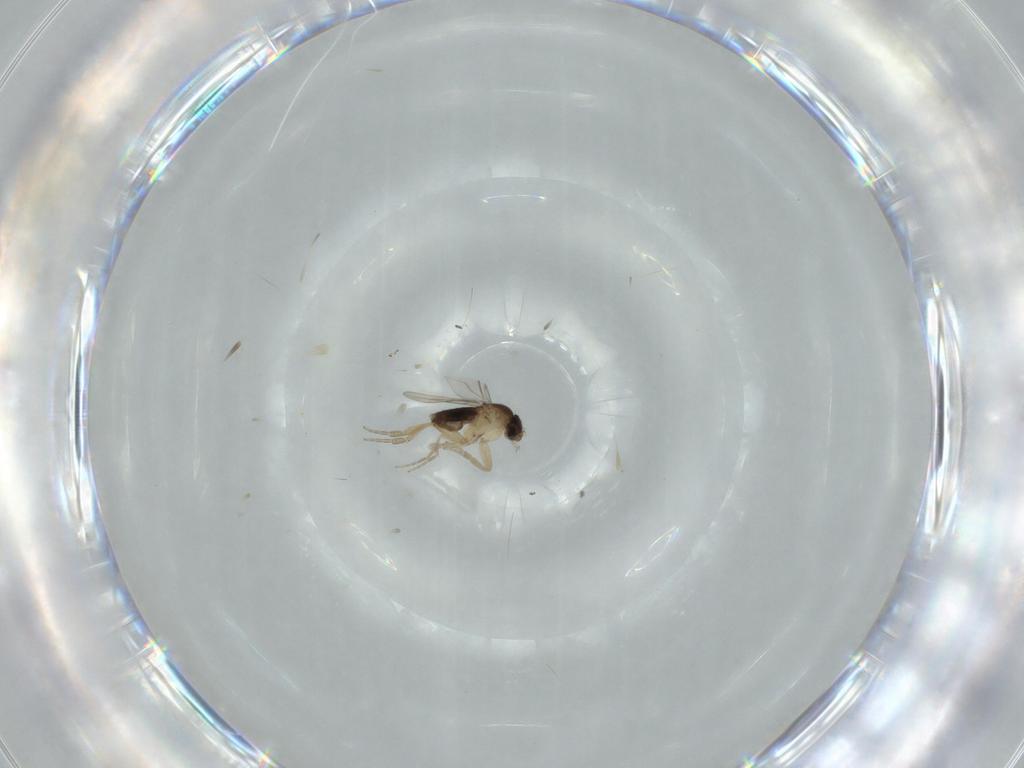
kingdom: Animalia
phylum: Arthropoda
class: Insecta
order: Diptera
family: Phoridae
